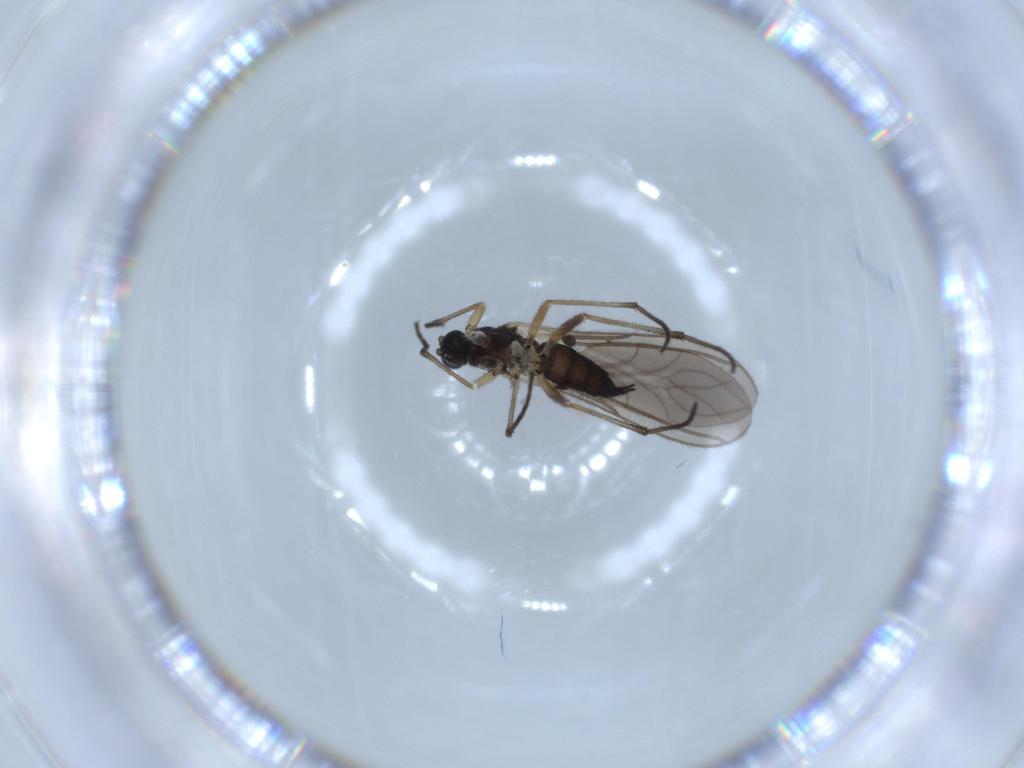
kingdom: Animalia
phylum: Arthropoda
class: Insecta
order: Diptera
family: Sciaridae
